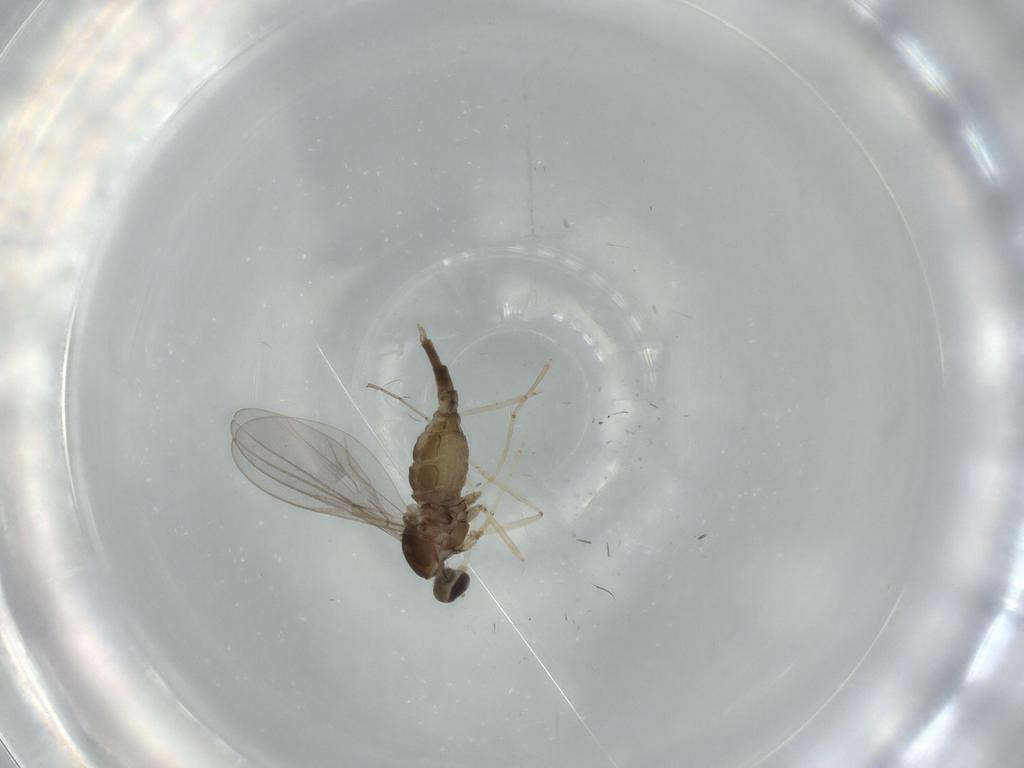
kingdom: Animalia
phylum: Arthropoda
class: Insecta
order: Diptera
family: Cecidomyiidae
